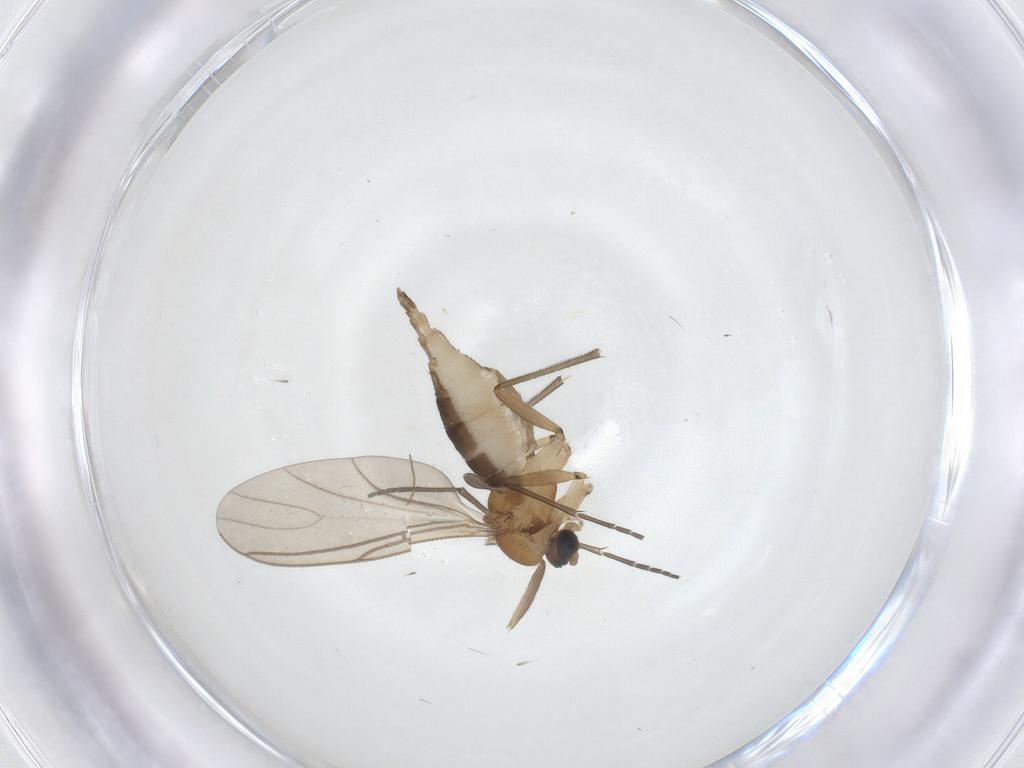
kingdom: Animalia
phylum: Arthropoda
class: Insecta
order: Diptera
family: Sciaridae
